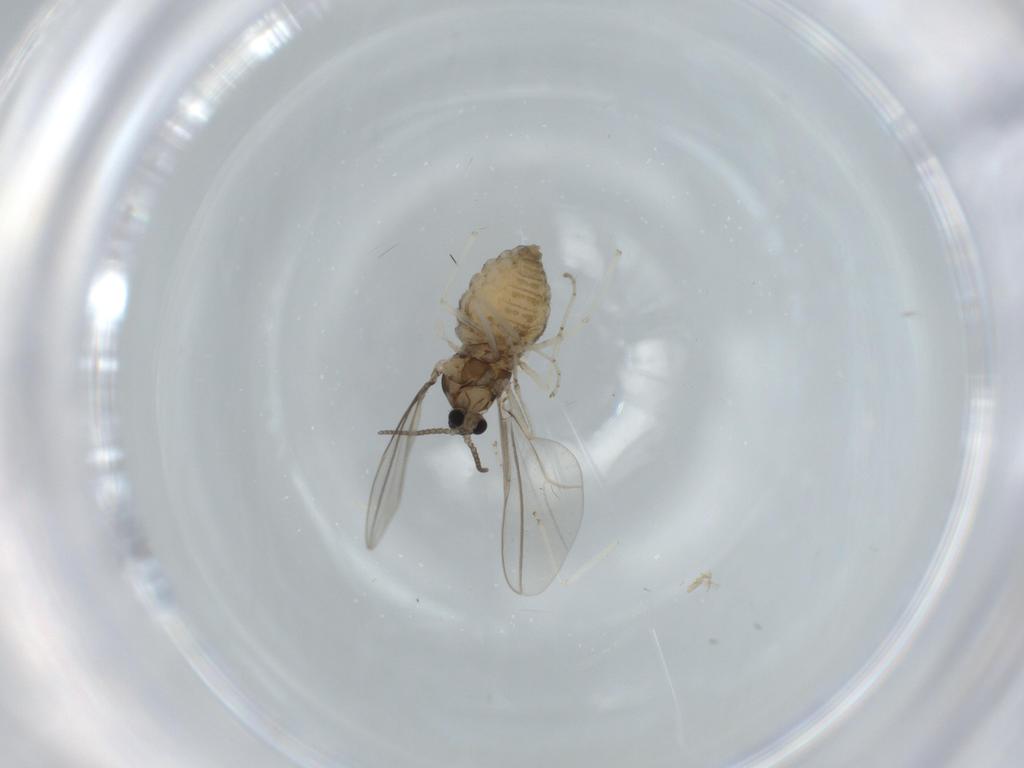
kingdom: Animalia
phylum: Arthropoda
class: Insecta
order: Diptera
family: Cecidomyiidae
